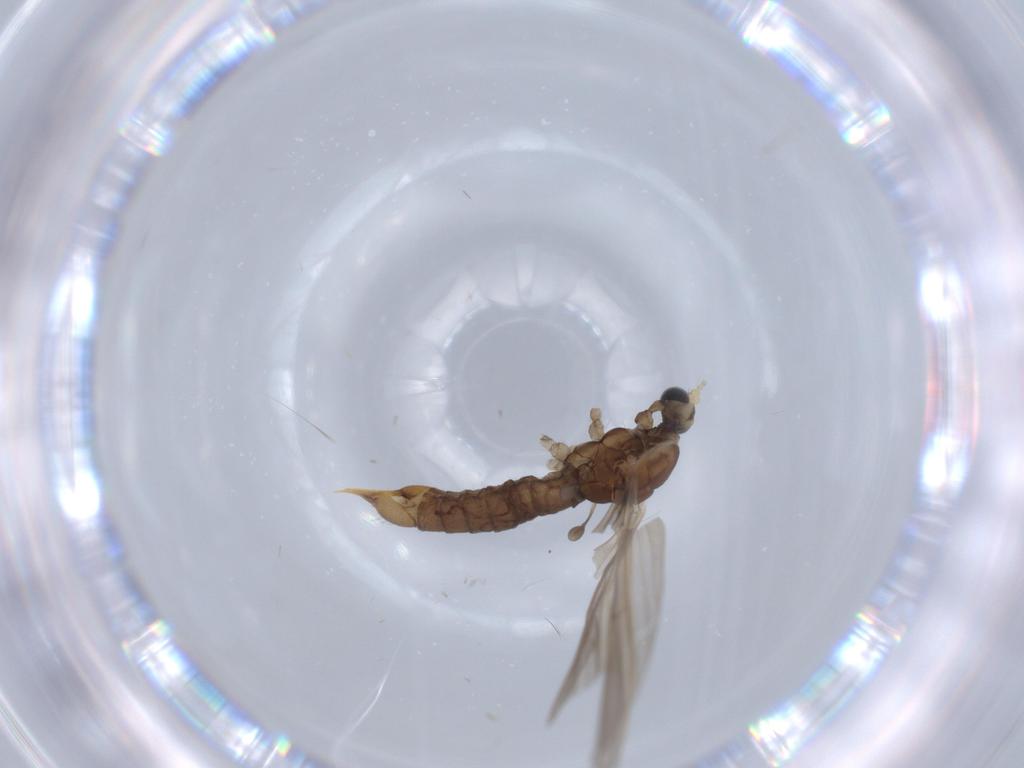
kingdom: Animalia
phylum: Arthropoda
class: Insecta
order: Diptera
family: Limoniidae
